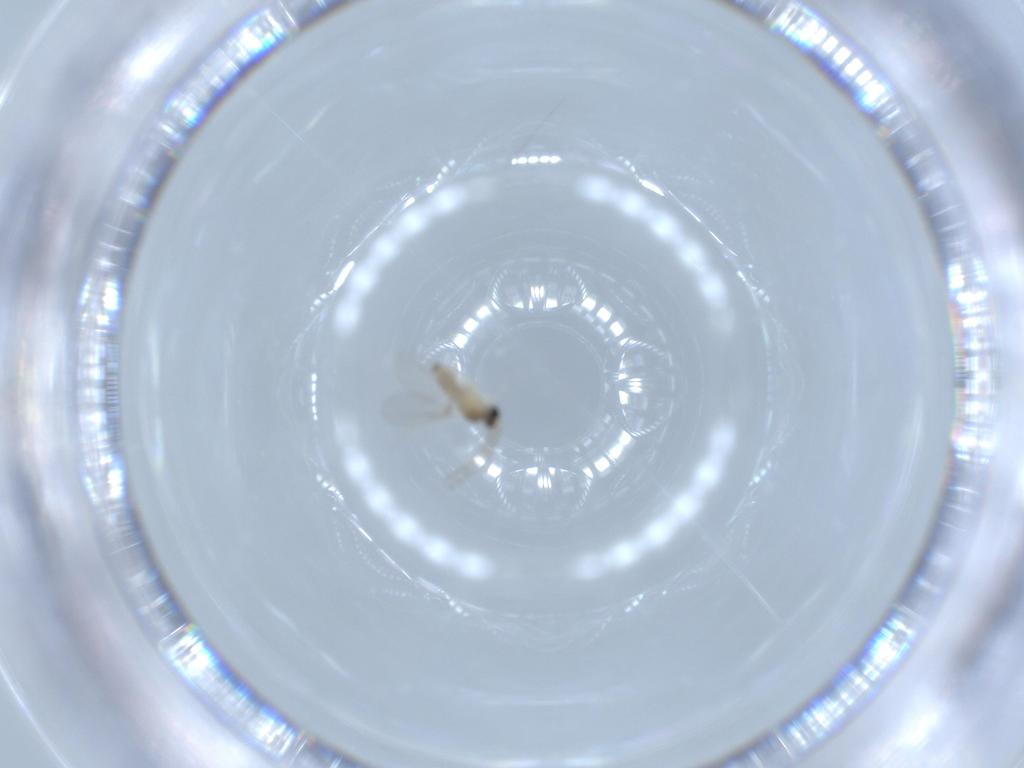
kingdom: Animalia
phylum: Arthropoda
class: Insecta
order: Diptera
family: Cecidomyiidae
